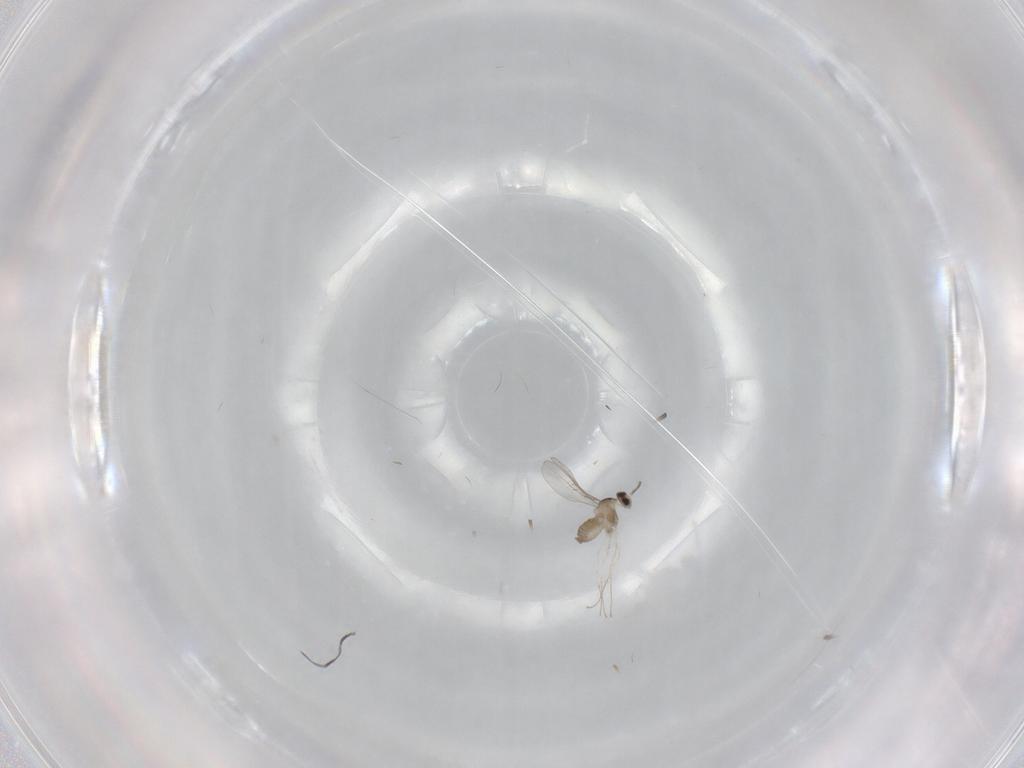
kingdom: Animalia
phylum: Arthropoda
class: Insecta
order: Diptera
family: Cecidomyiidae
